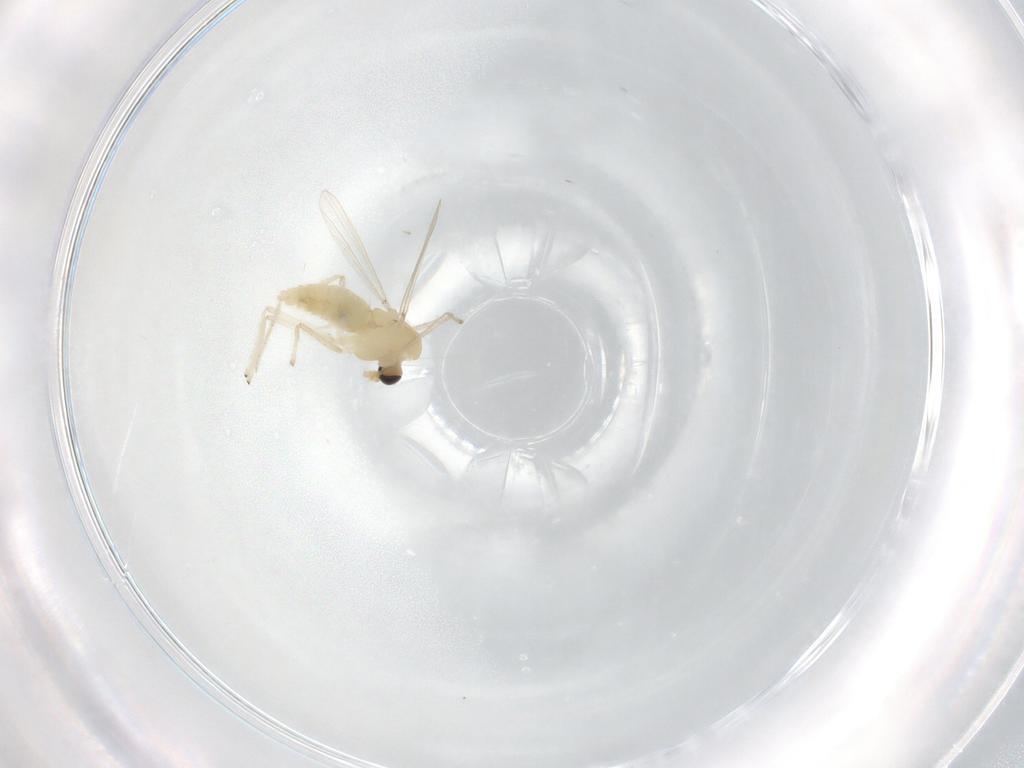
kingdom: Animalia
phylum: Arthropoda
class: Insecta
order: Diptera
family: Chironomidae
